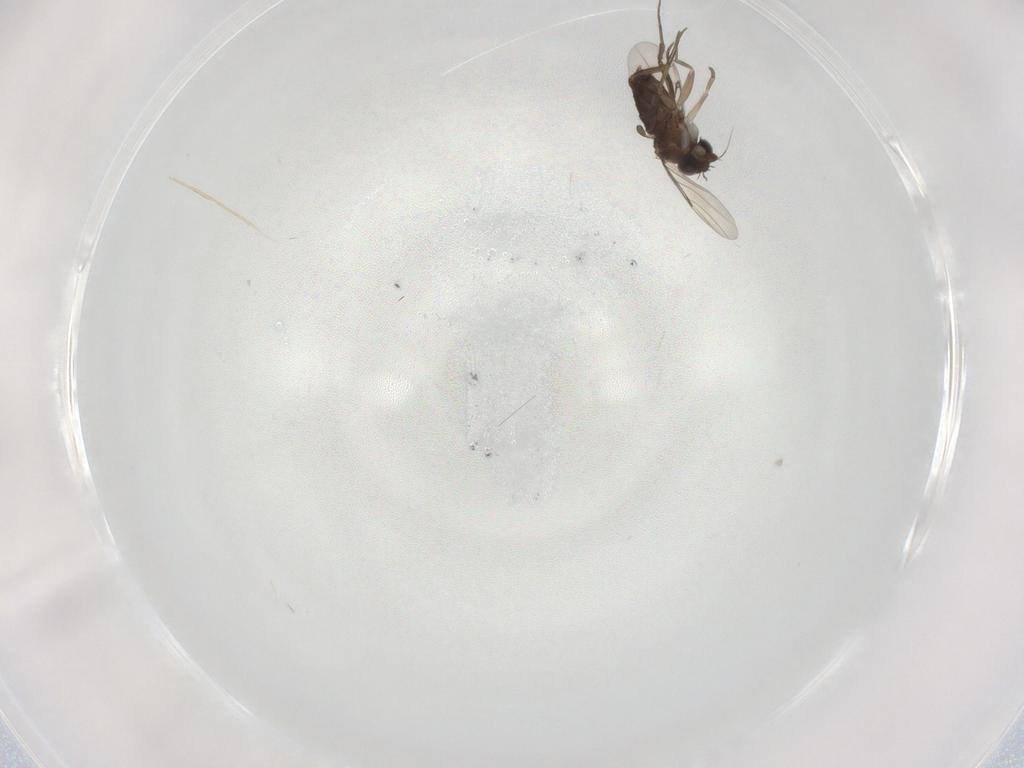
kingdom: Animalia
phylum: Arthropoda
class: Insecta
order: Diptera
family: Phoridae
